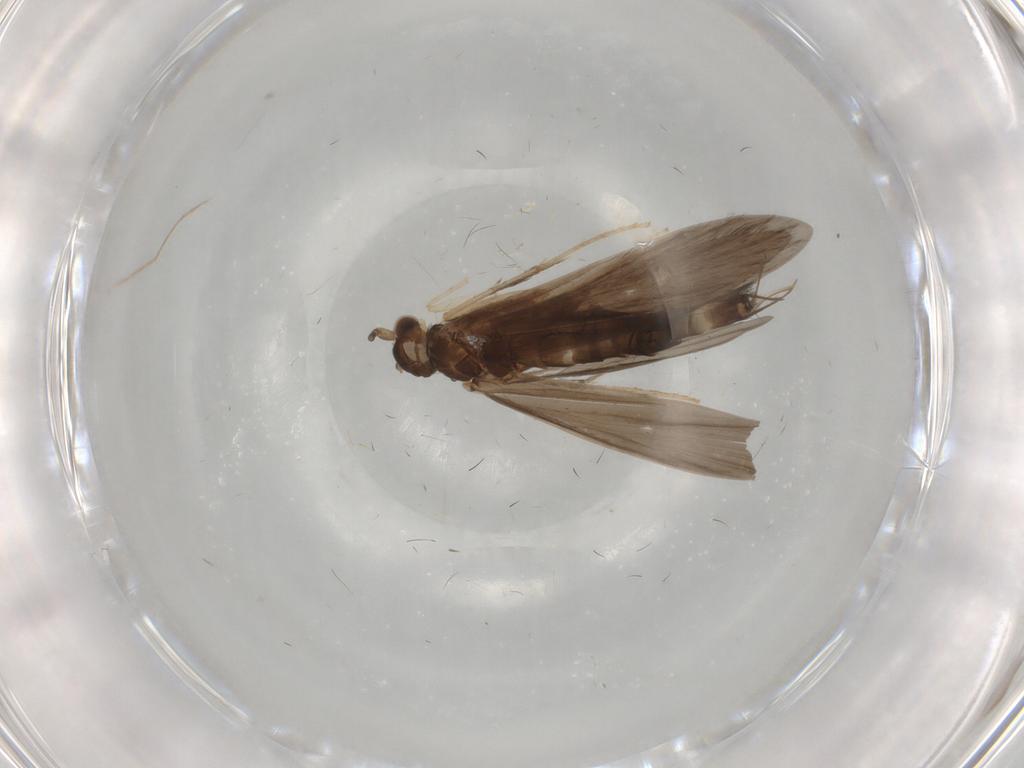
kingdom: Animalia
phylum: Arthropoda
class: Insecta
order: Trichoptera
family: Xiphocentronidae
